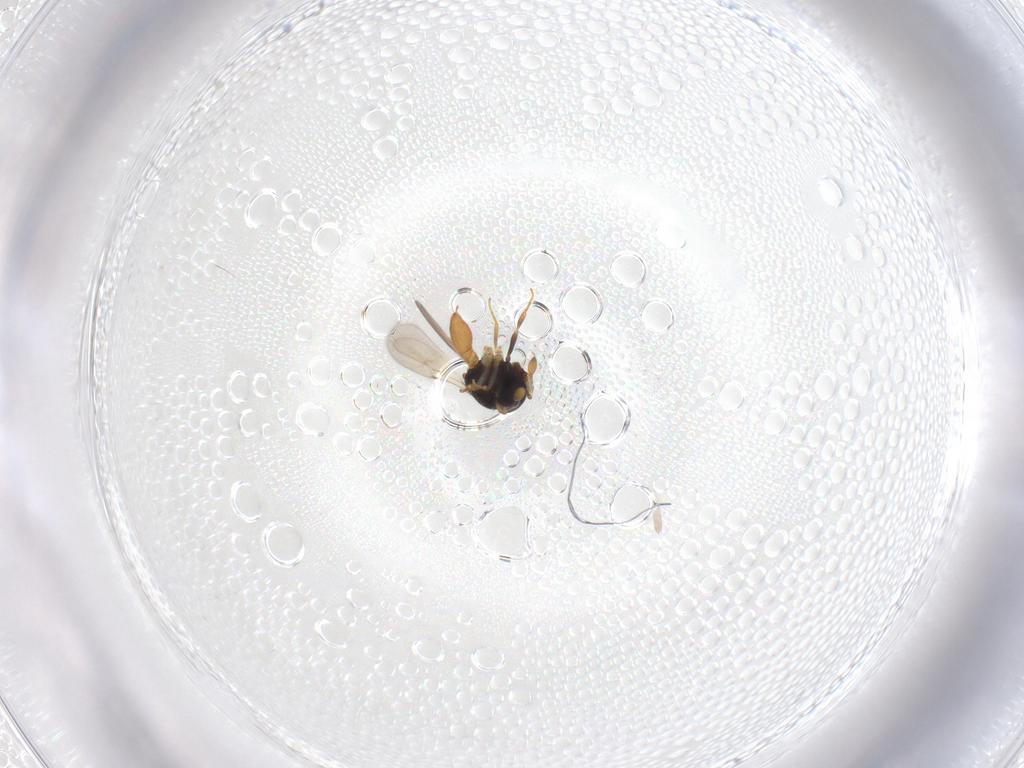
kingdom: Animalia
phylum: Arthropoda
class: Insecta
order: Hymenoptera
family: Scelionidae
